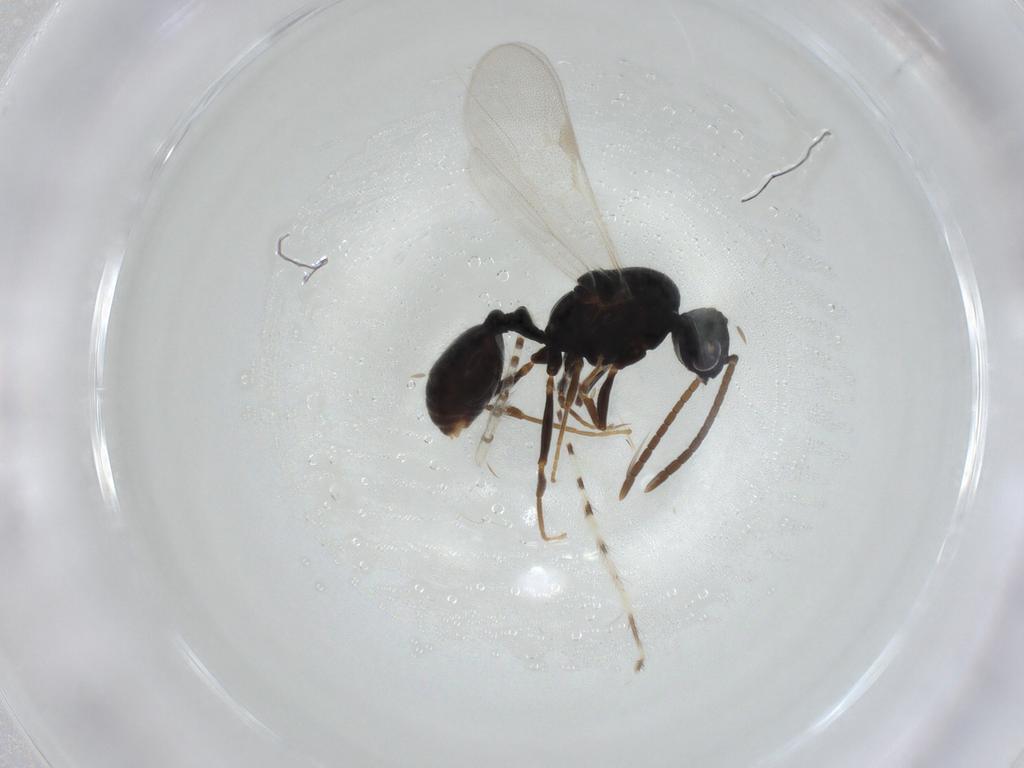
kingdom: Animalia
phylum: Arthropoda
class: Insecta
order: Hymenoptera
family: Formicidae
